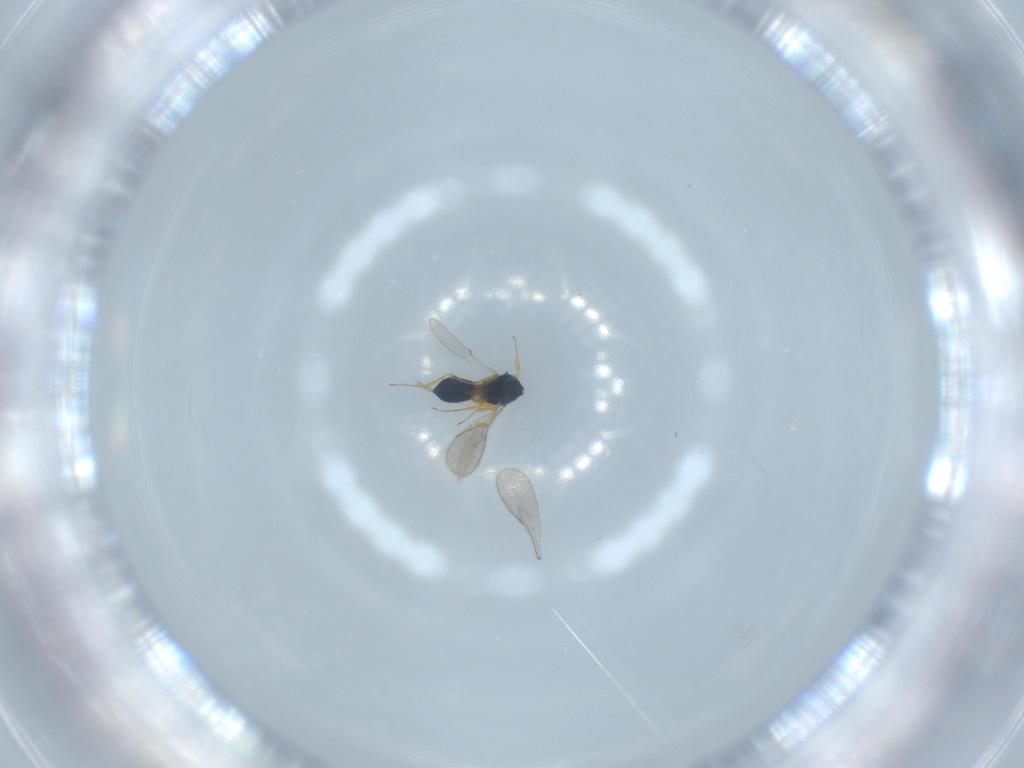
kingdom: Animalia
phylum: Arthropoda
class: Insecta
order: Hymenoptera
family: Scelionidae
